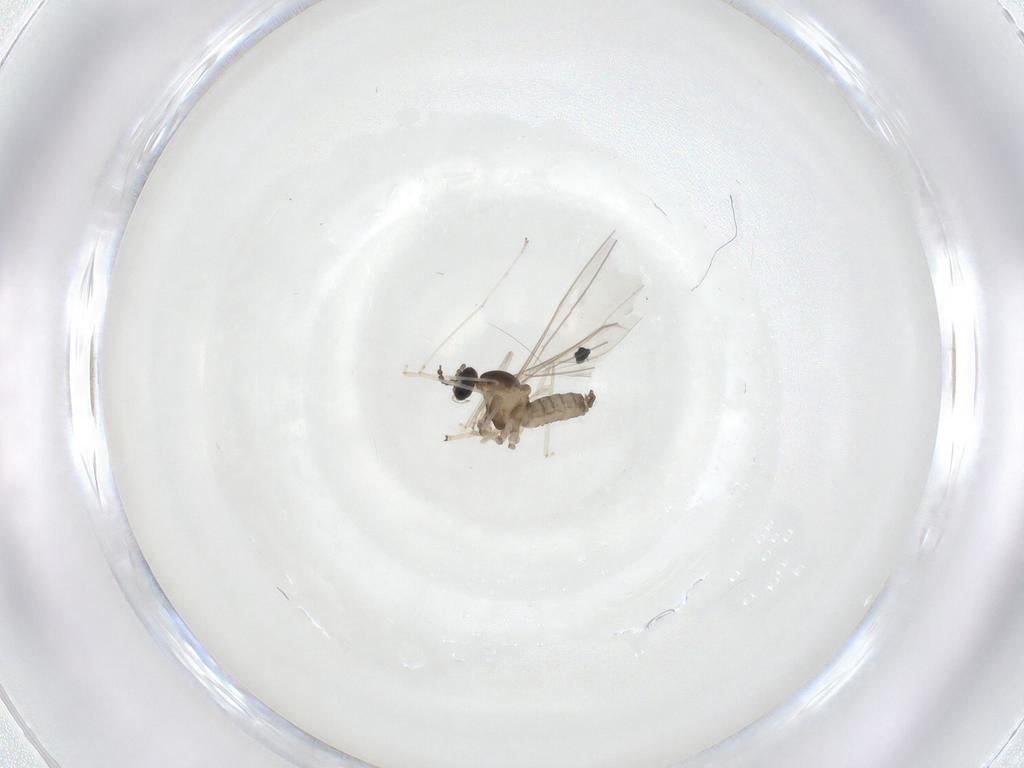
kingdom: Animalia
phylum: Arthropoda
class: Insecta
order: Diptera
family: Cecidomyiidae
